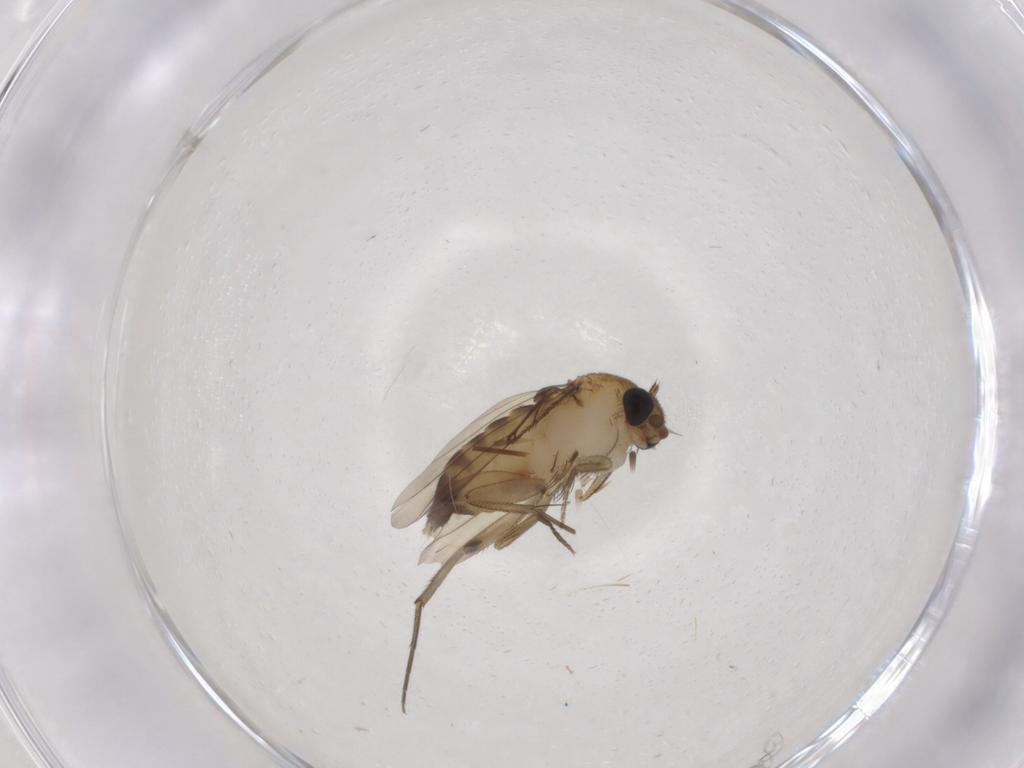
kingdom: Animalia
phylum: Arthropoda
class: Insecta
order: Diptera
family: Phoridae
